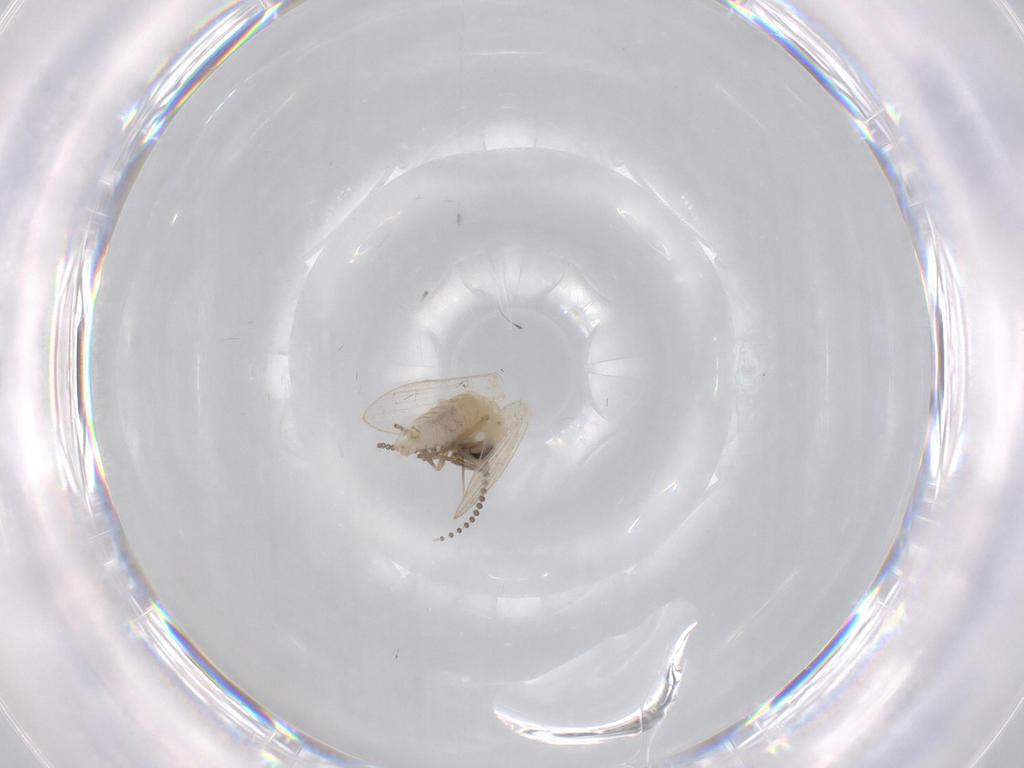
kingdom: Animalia
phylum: Arthropoda
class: Insecta
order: Diptera
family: Psychodidae
